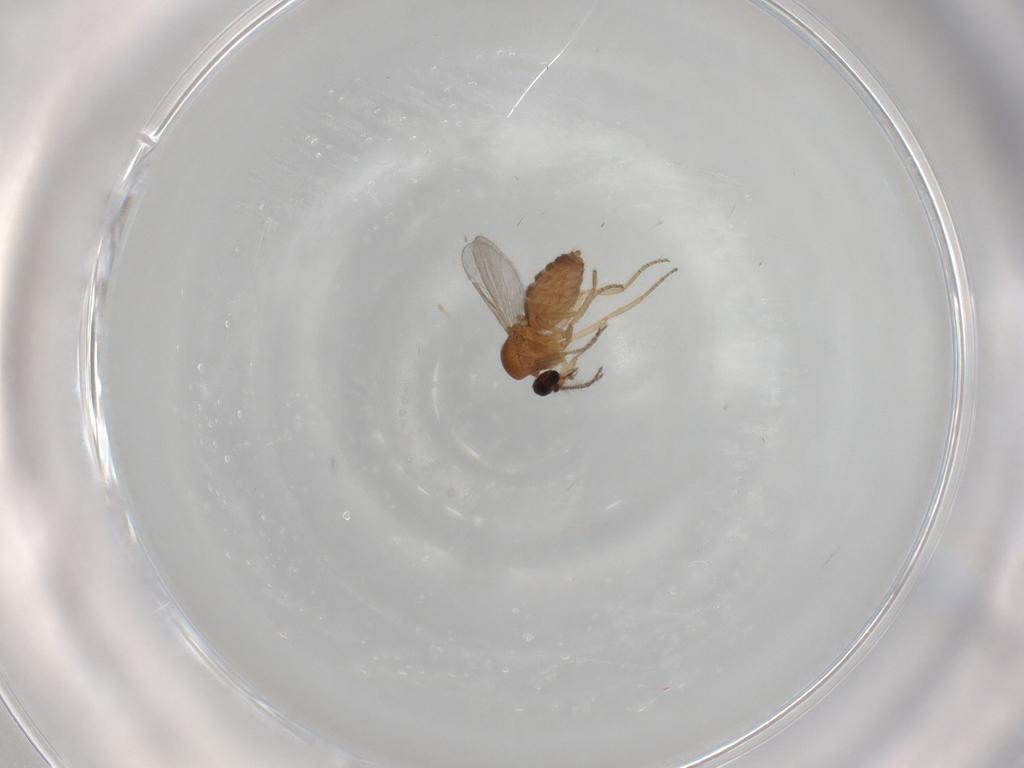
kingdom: Animalia
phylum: Arthropoda
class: Insecta
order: Diptera
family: Ceratopogonidae
